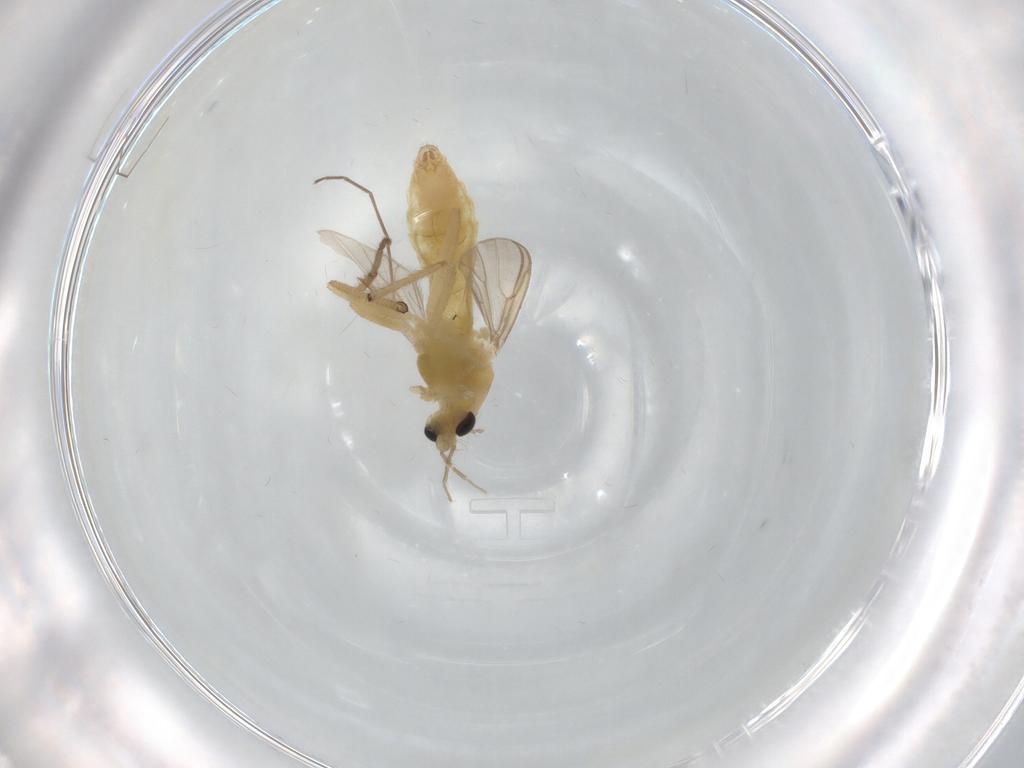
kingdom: Animalia
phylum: Arthropoda
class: Insecta
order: Diptera
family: Chironomidae
